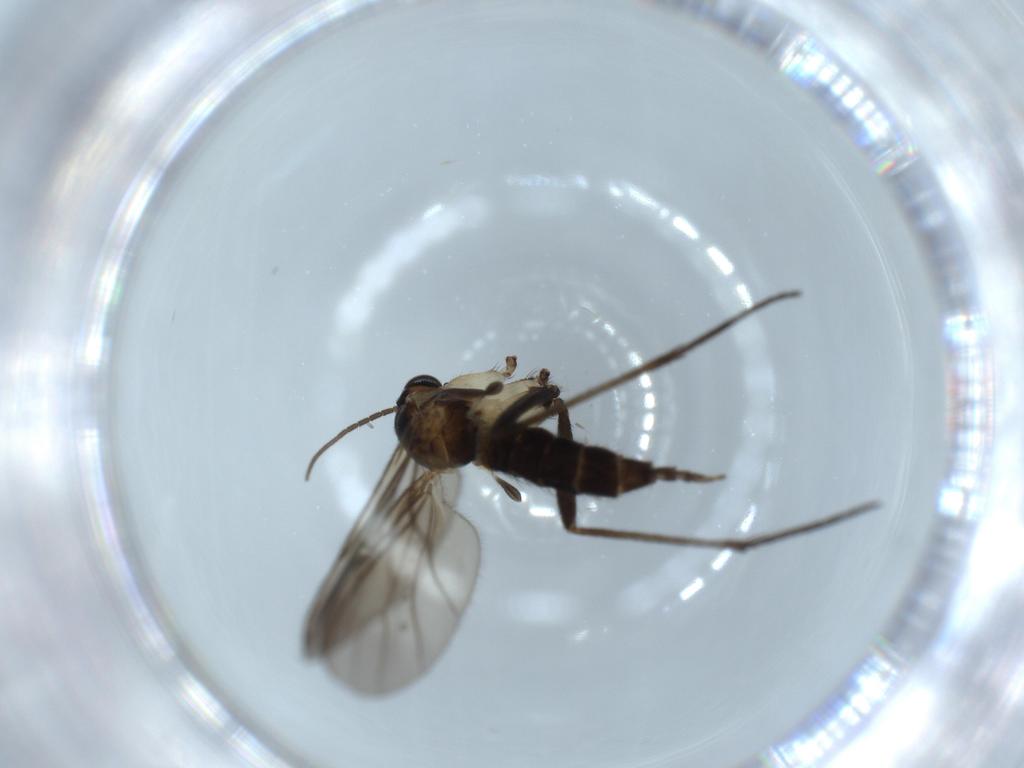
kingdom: Animalia
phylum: Arthropoda
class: Insecta
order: Diptera
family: Sciaridae
